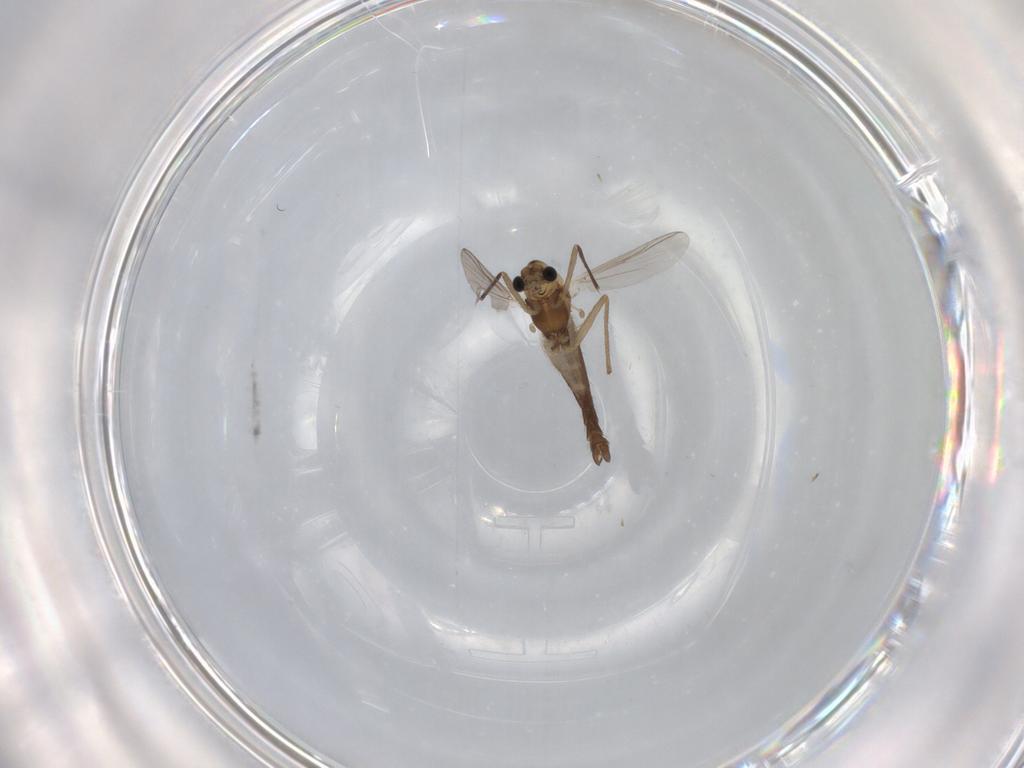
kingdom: Animalia
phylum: Arthropoda
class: Insecta
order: Diptera
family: Chironomidae
